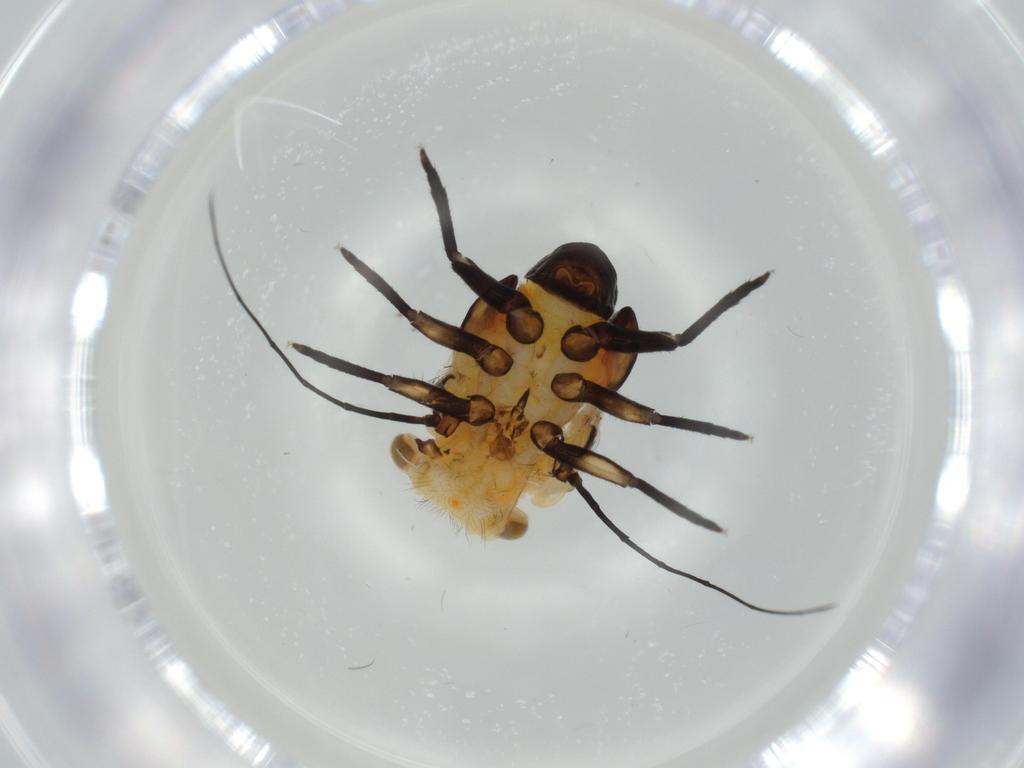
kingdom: Animalia
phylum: Arthropoda
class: Insecta
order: Hemiptera
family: Psyllidae
